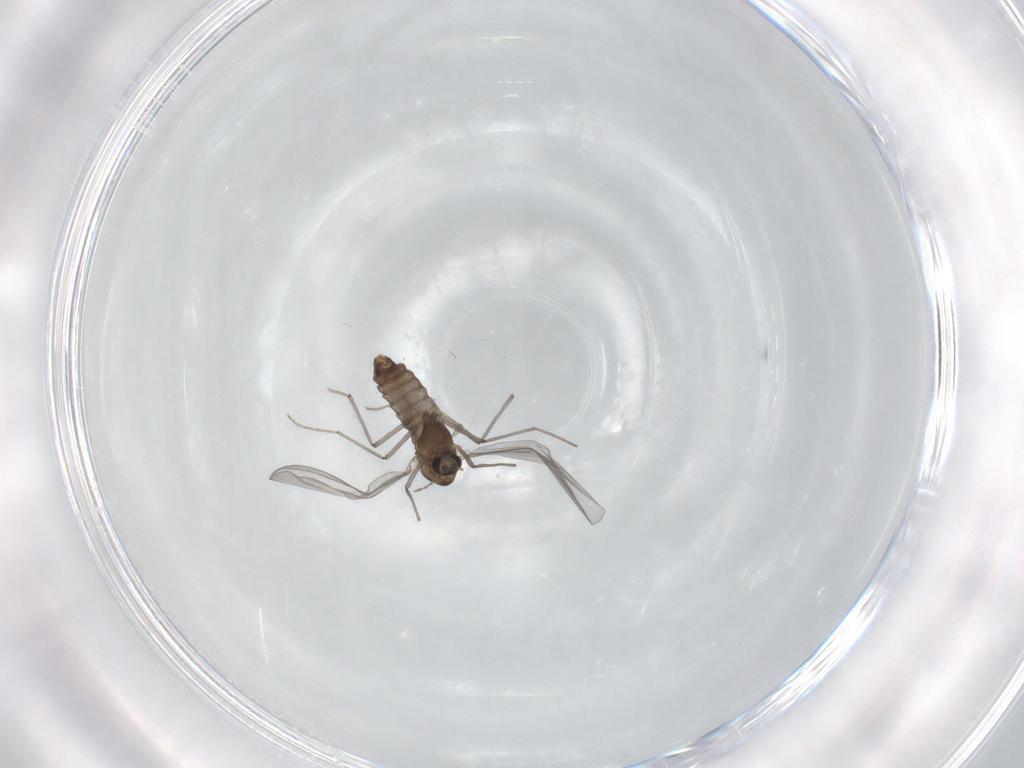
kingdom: Animalia
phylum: Arthropoda
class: Insecta
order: Diptera
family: Chironomidae
